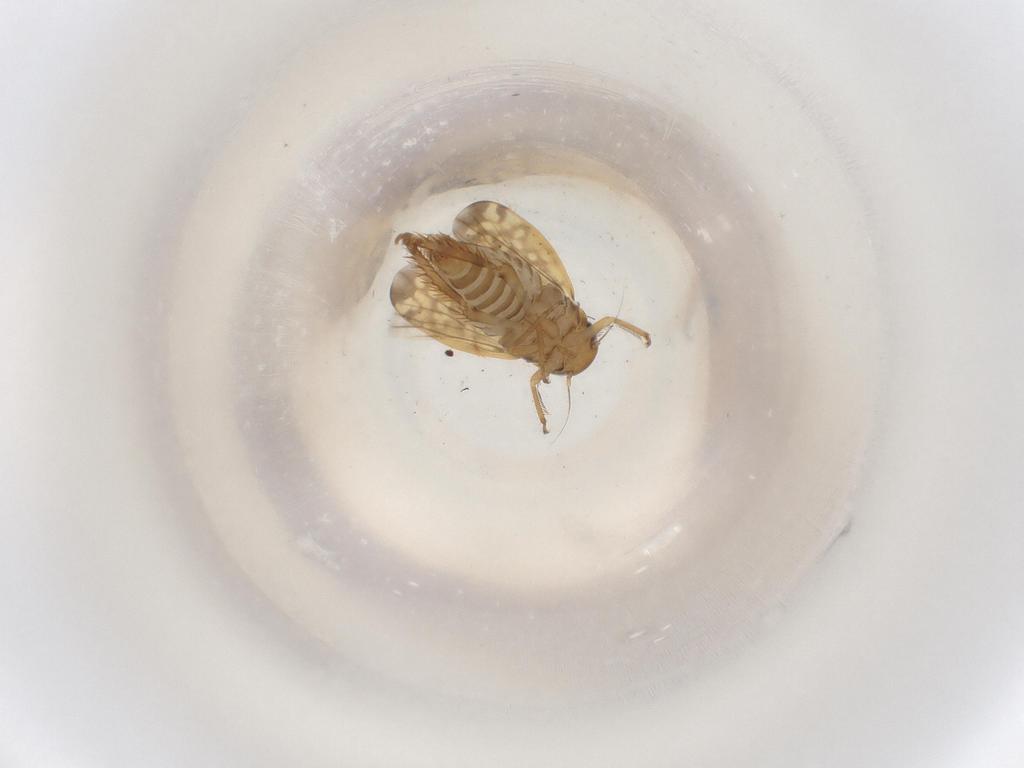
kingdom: Animalia
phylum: Arthropoda
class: Insecta
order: Hemiptera
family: Cicadellidae
